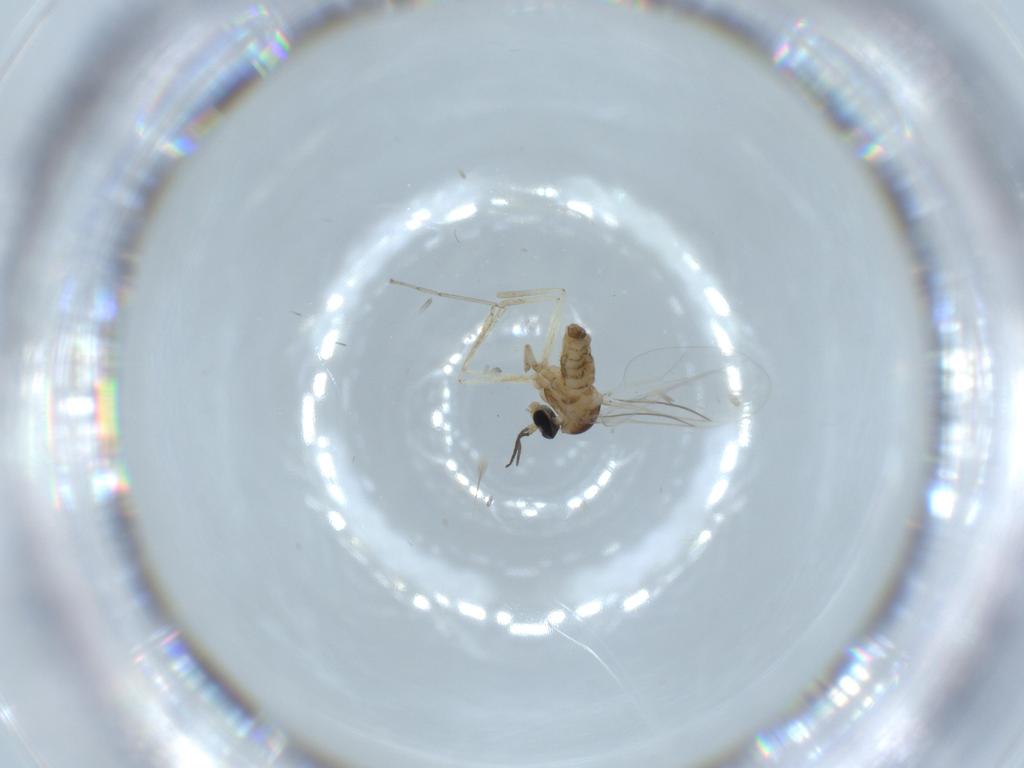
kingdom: Animalia
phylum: Arthropoda
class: Insecta
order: Diptera
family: Cecidomyiidae
